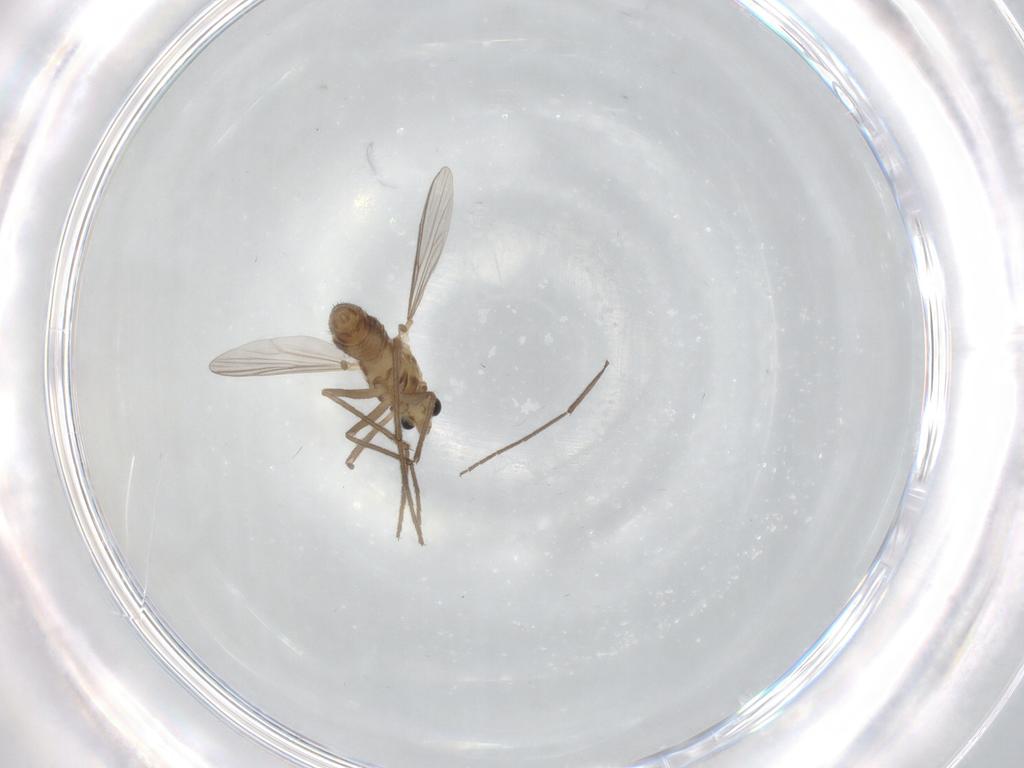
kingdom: Animalia
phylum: Arthropoda
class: Insecta
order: Diptera
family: Chironomidae
